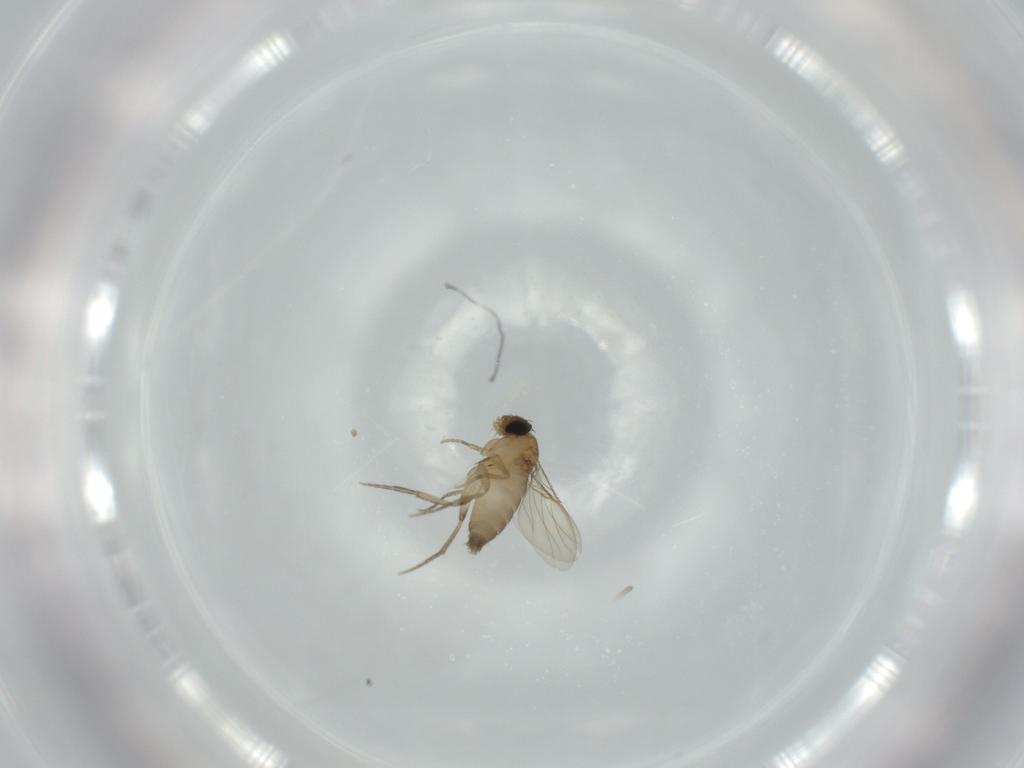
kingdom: Animalia
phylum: Arthropoda
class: Insecta
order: Diptera
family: Phoridae
